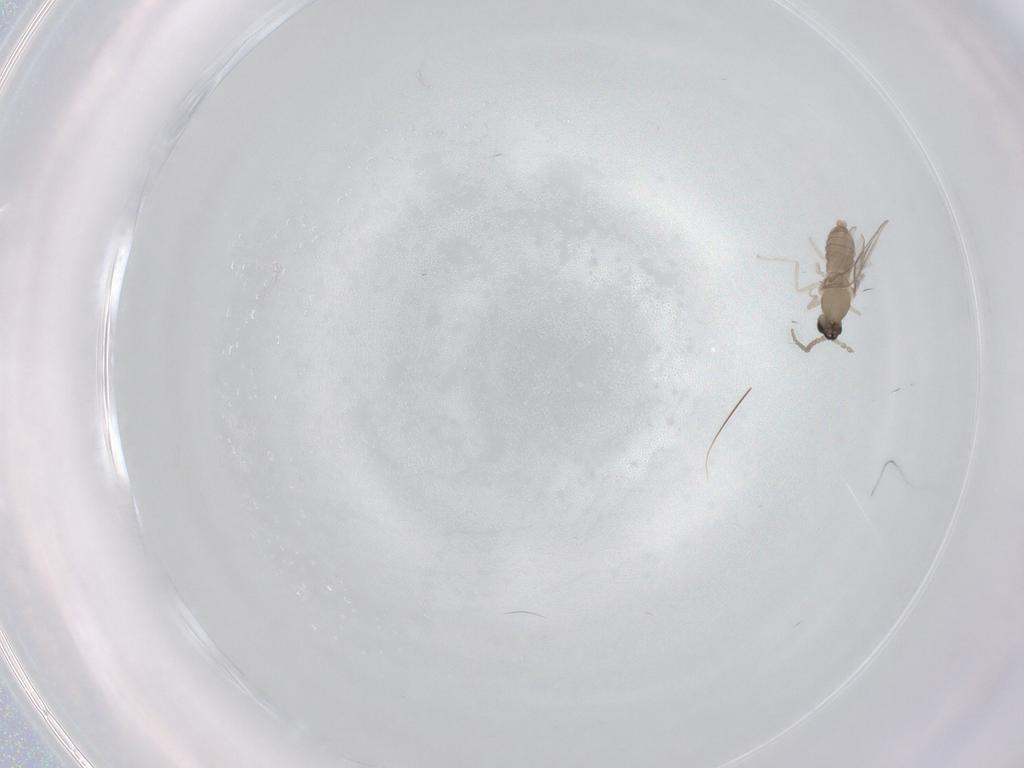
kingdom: Animalia
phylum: Arthropoda
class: Insecta
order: Diptera
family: Cecidomyiidae
